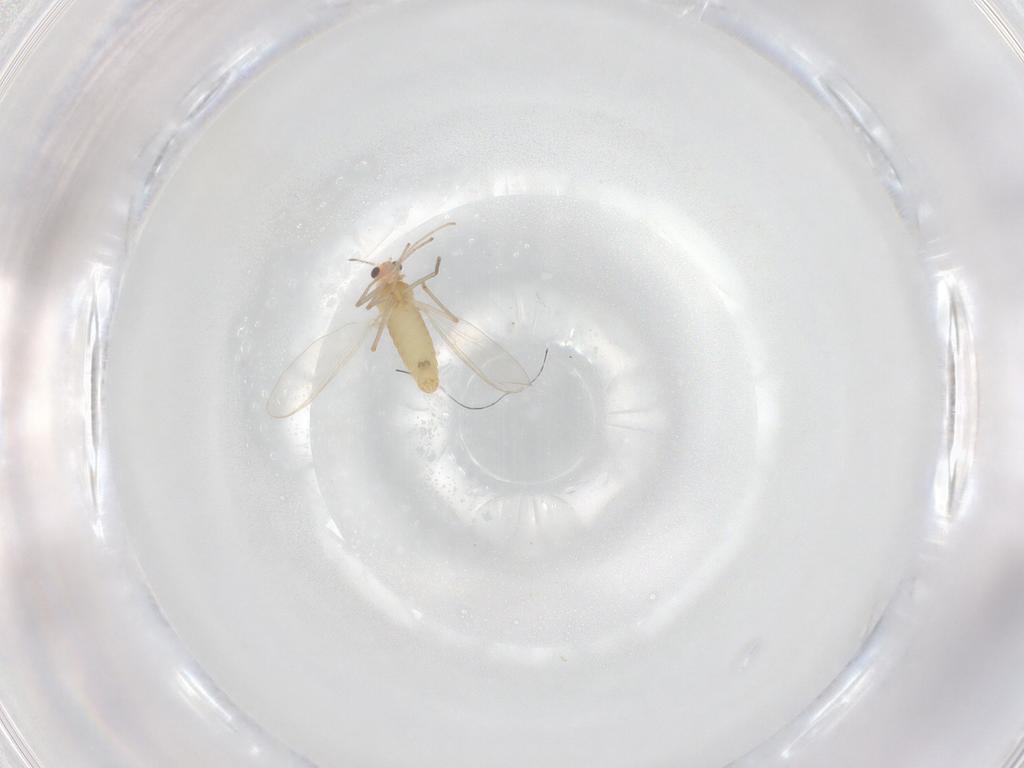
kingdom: Animalia
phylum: Arthropoda
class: Insecta
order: Diptera
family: Chironomidae
